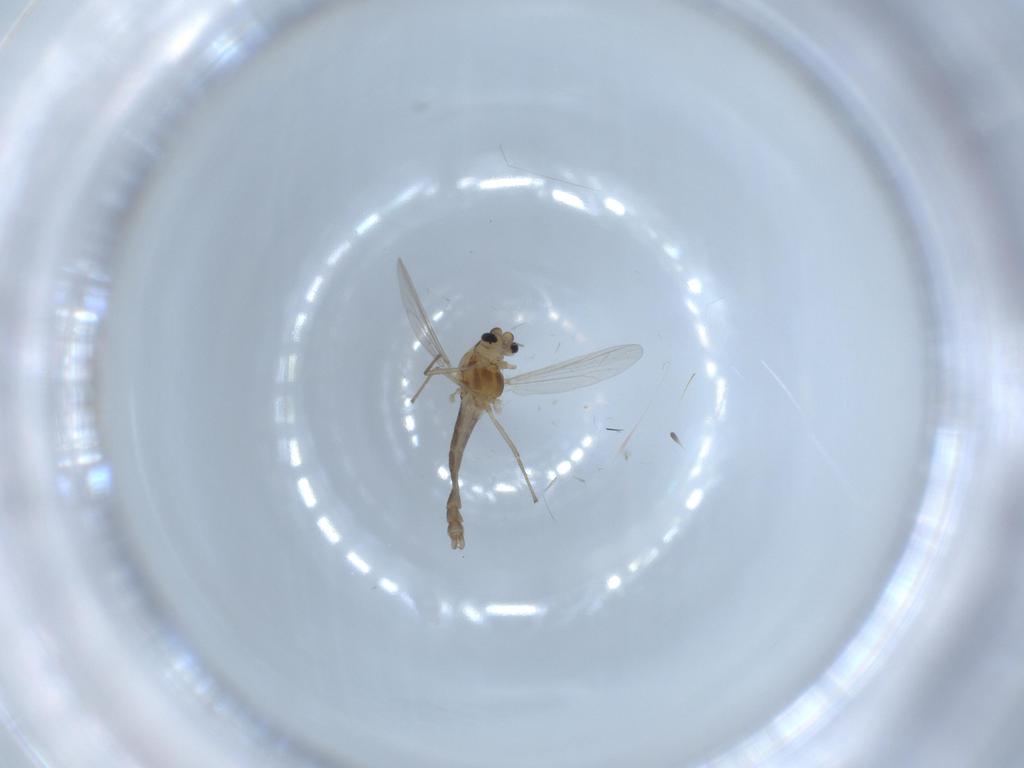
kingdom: Animalia
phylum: Arthropoda
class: Insecta
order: Diptera
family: Chironomidae
